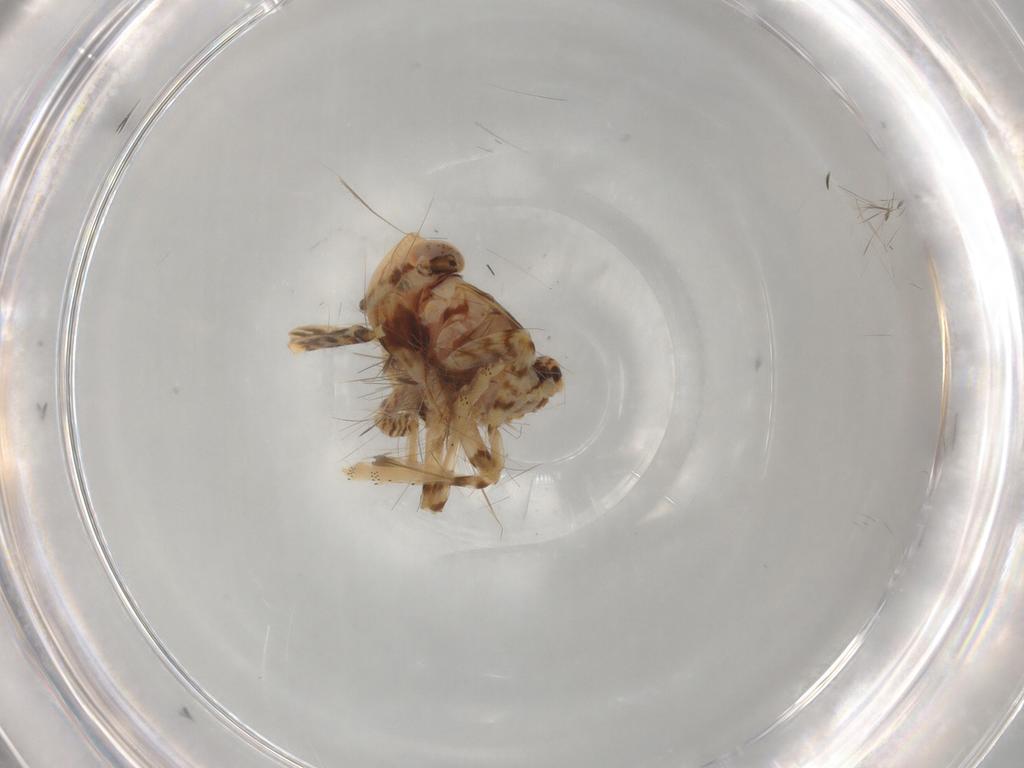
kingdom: Animalia
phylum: Arthropoda
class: Insecta
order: Hemiptera
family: Lophopidae
